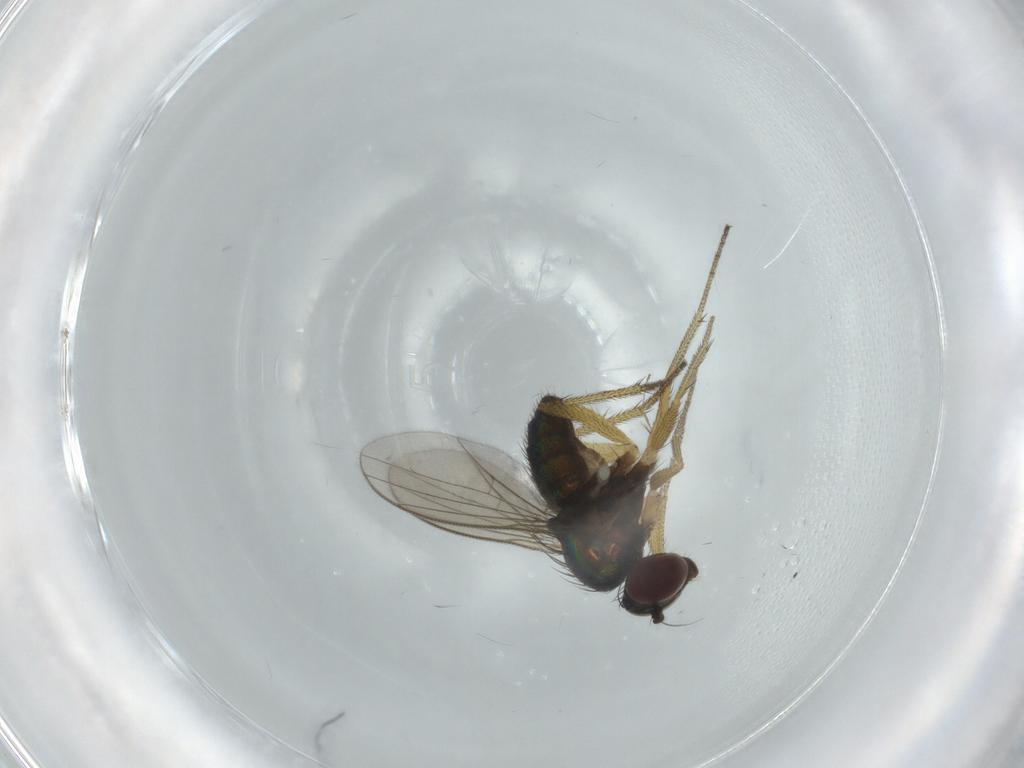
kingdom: Animalia
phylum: Arthropoda
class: Insecta
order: Diptera
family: Dolichopodidae
